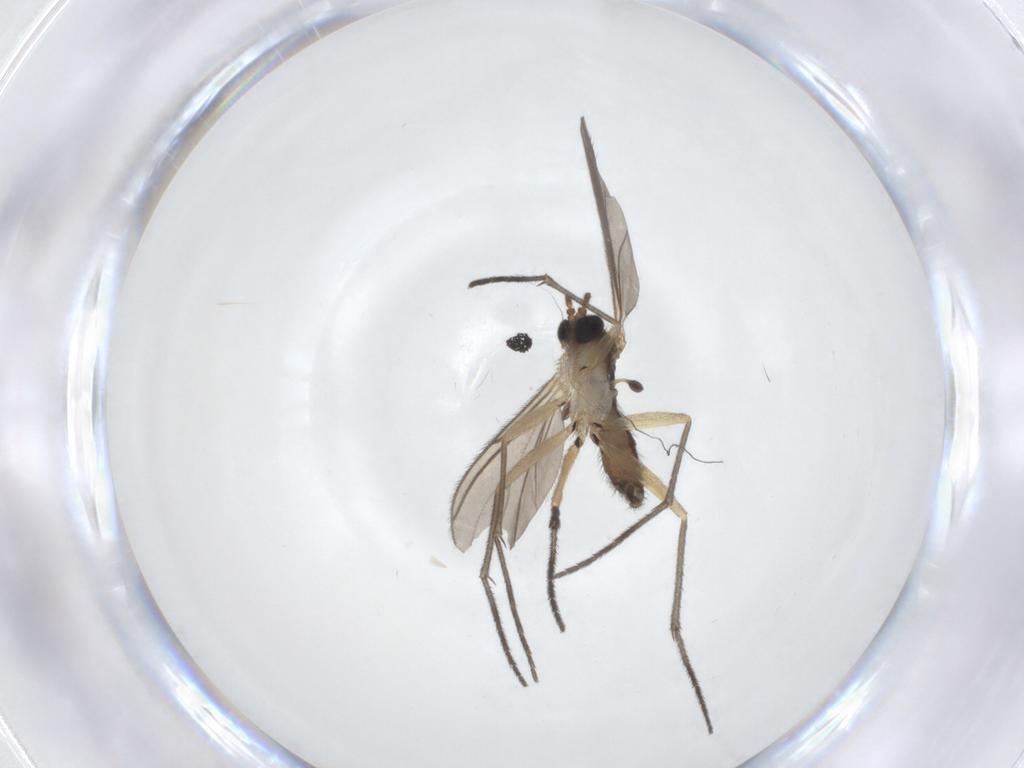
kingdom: Animalia
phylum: Arthropoda
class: Insecta
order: Diptera
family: Sciaridae
